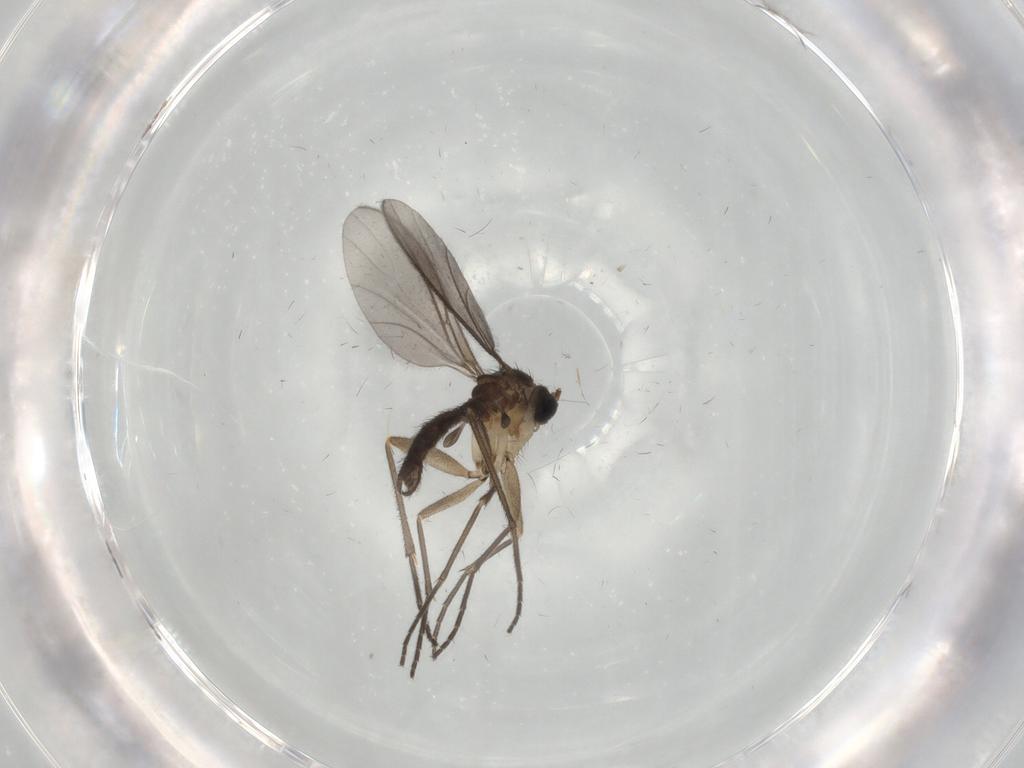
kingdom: Animalia
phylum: Arthropoda
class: Insecta
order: Diptera
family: Sciaridae
